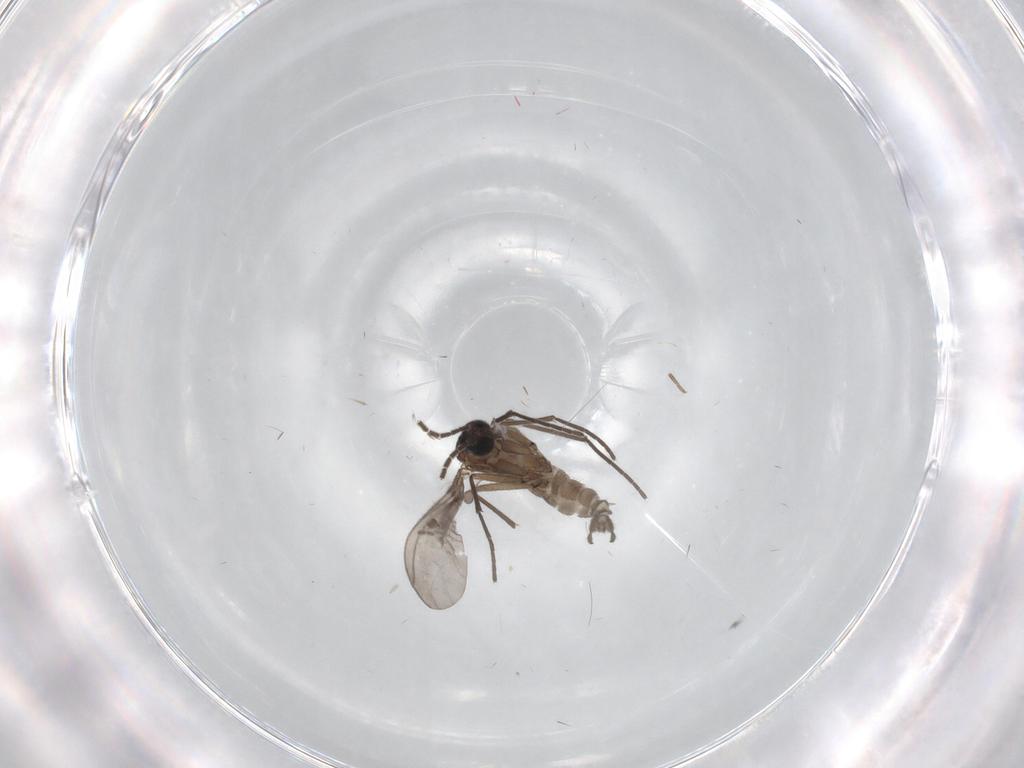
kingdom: Animalia
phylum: Arthropoda
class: Insecta
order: Diptera
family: Sciaridae
